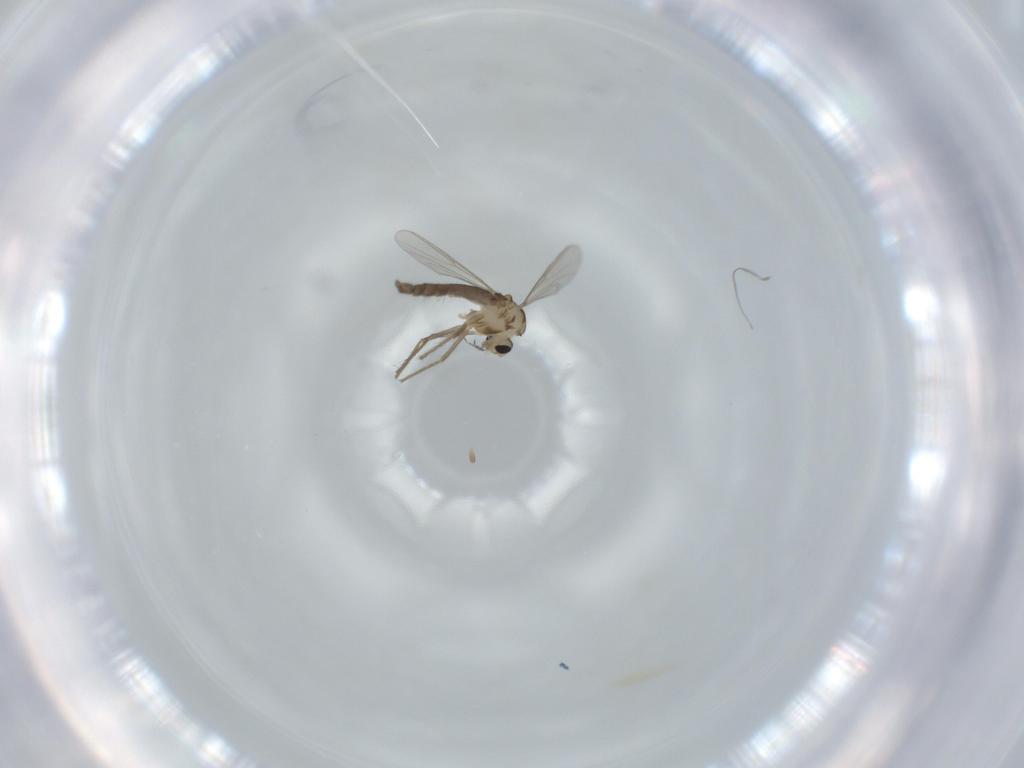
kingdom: Animalia
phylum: Arthropoda
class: Insecta
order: Diptera
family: Chironomidae
